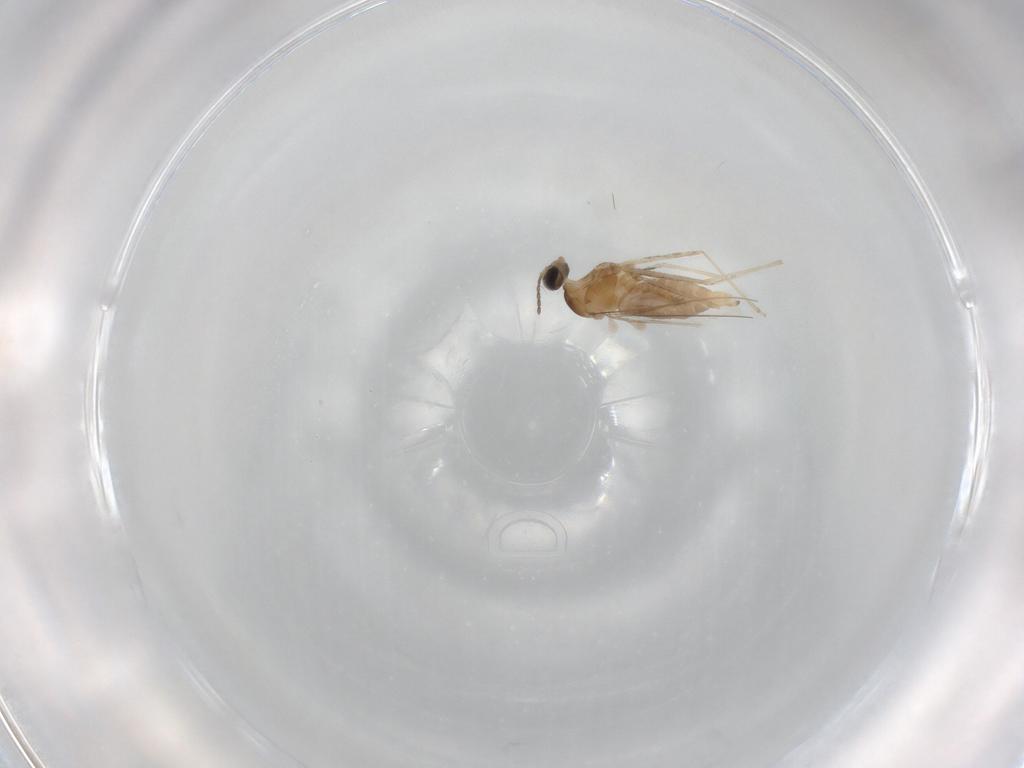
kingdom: Animalia
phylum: Arthropoda
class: Insecta
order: Diptera
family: Cecidomyiidae
